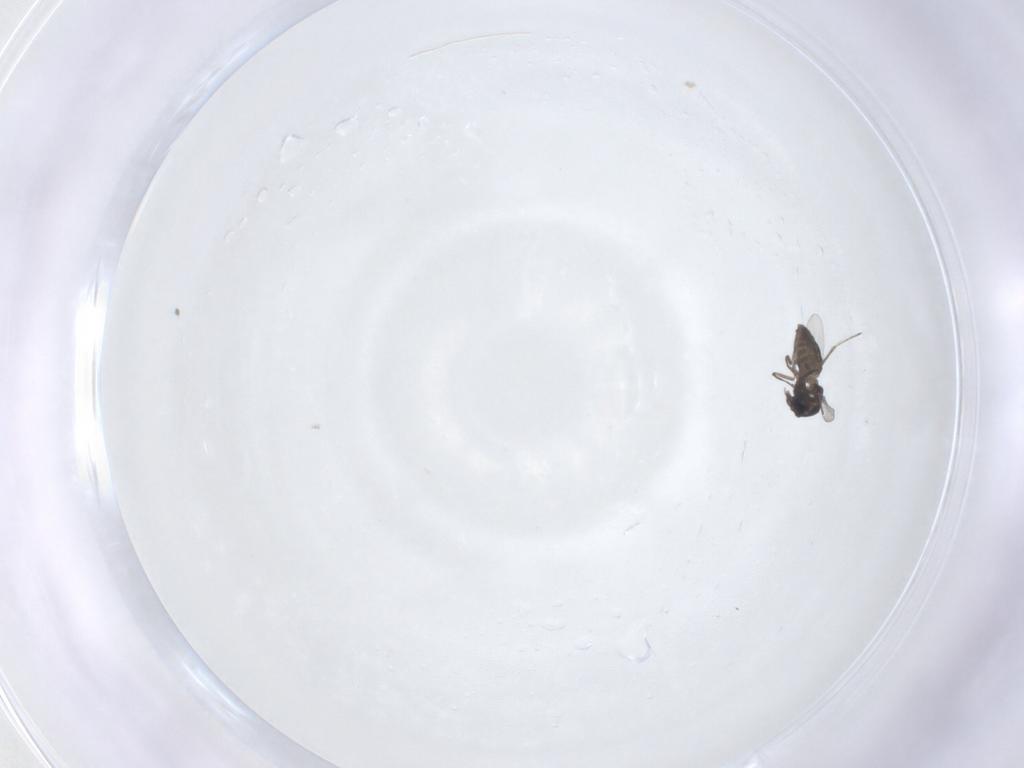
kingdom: Animalia
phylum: Arthropoda
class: Insecta
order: Diptera
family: Ceratopogonidae
